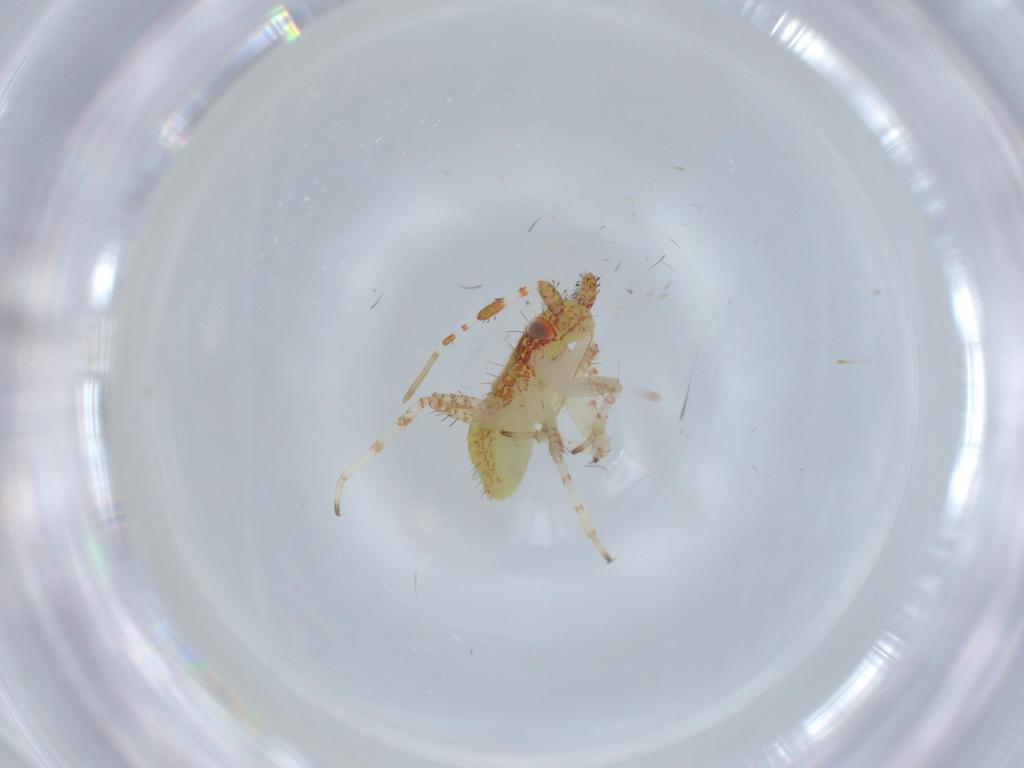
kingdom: Animalia
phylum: Arthropoda
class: Insecta
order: Hemiptera
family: Miridae
